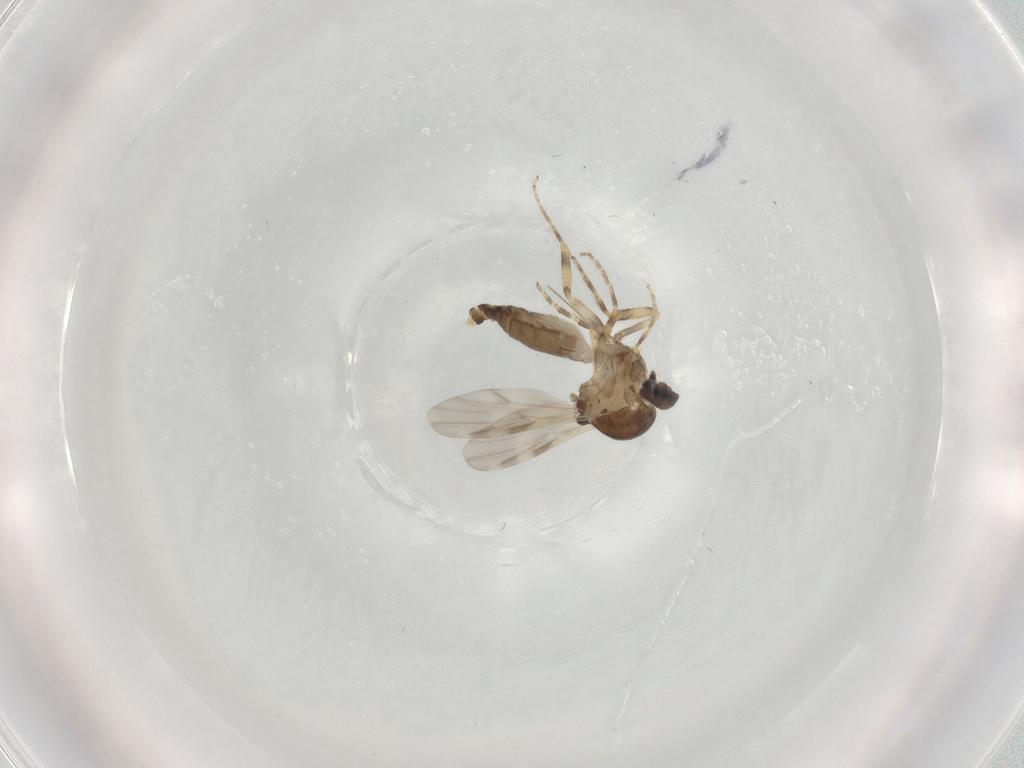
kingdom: Animalia
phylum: Arthropoda
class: Insecta
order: Diptera
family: Ceratopogonidae
